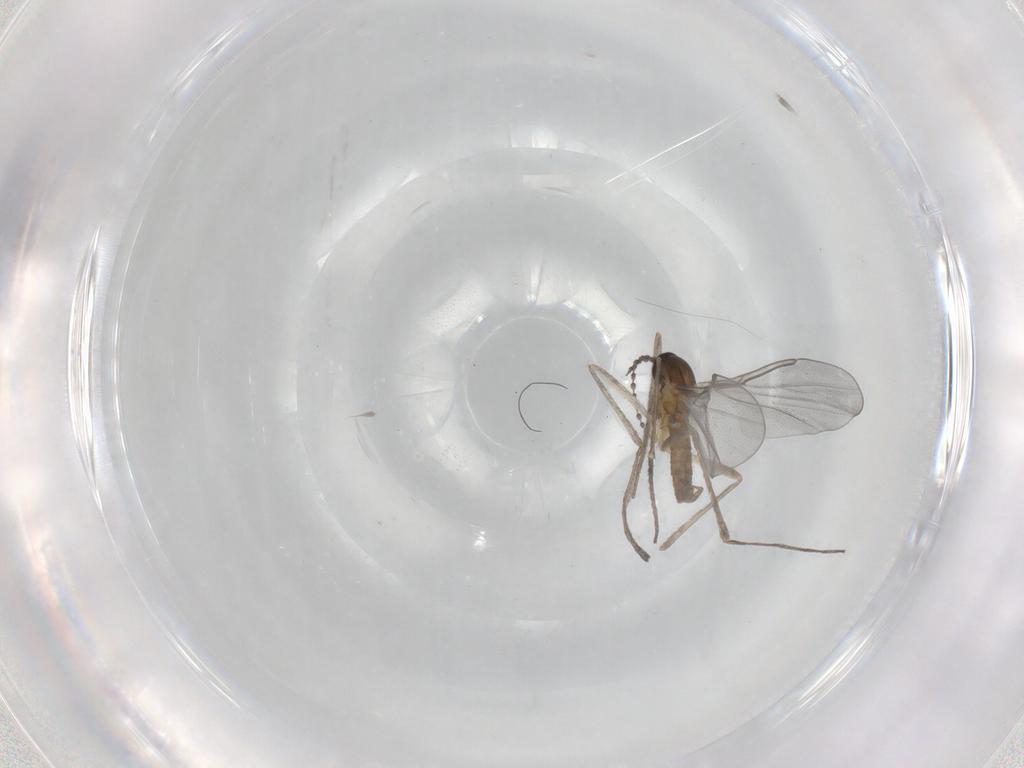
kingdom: Animalia
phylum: Arthropoda
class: Insecta
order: Diptera
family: Cecidomyiidae
